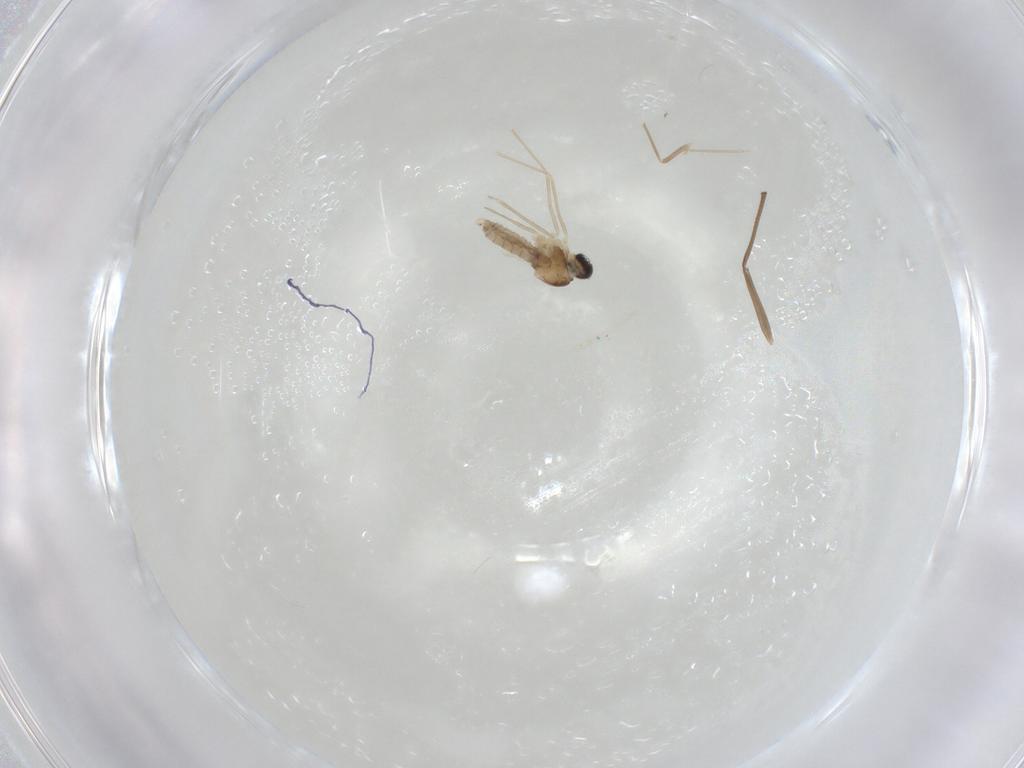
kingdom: Animalia
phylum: Arthropoda
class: Insecta
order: Diptera
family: Cecidomyiidae
